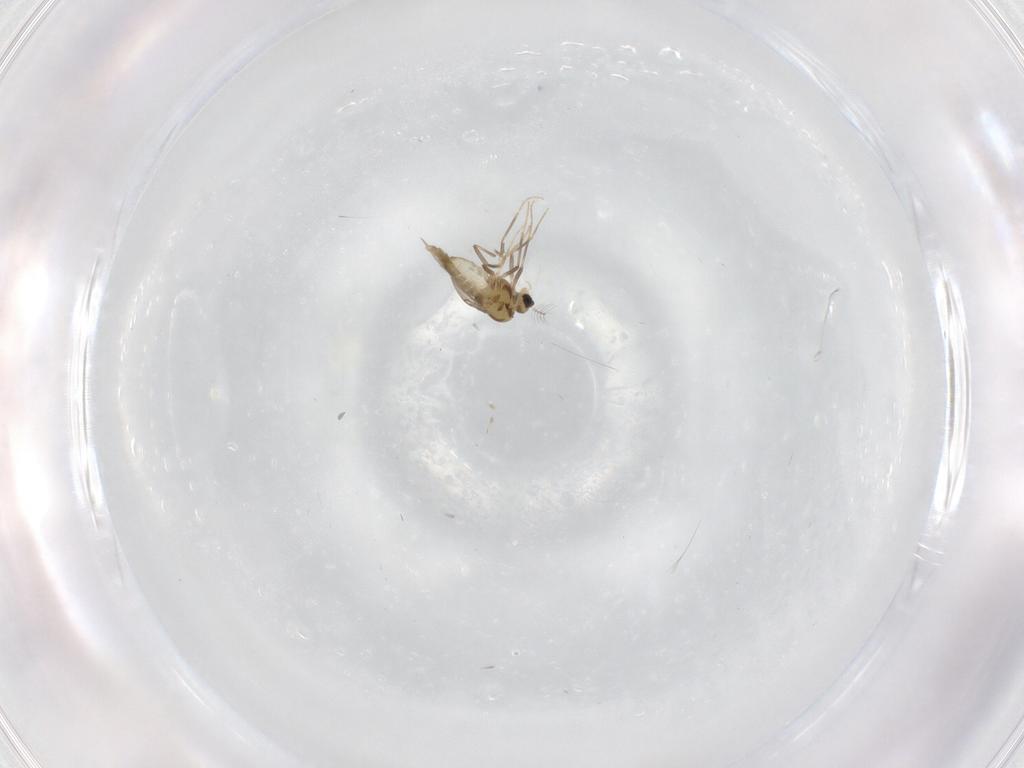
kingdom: Animalia
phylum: Arthropoda
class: Insecta
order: Diptera
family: Chironomidae
